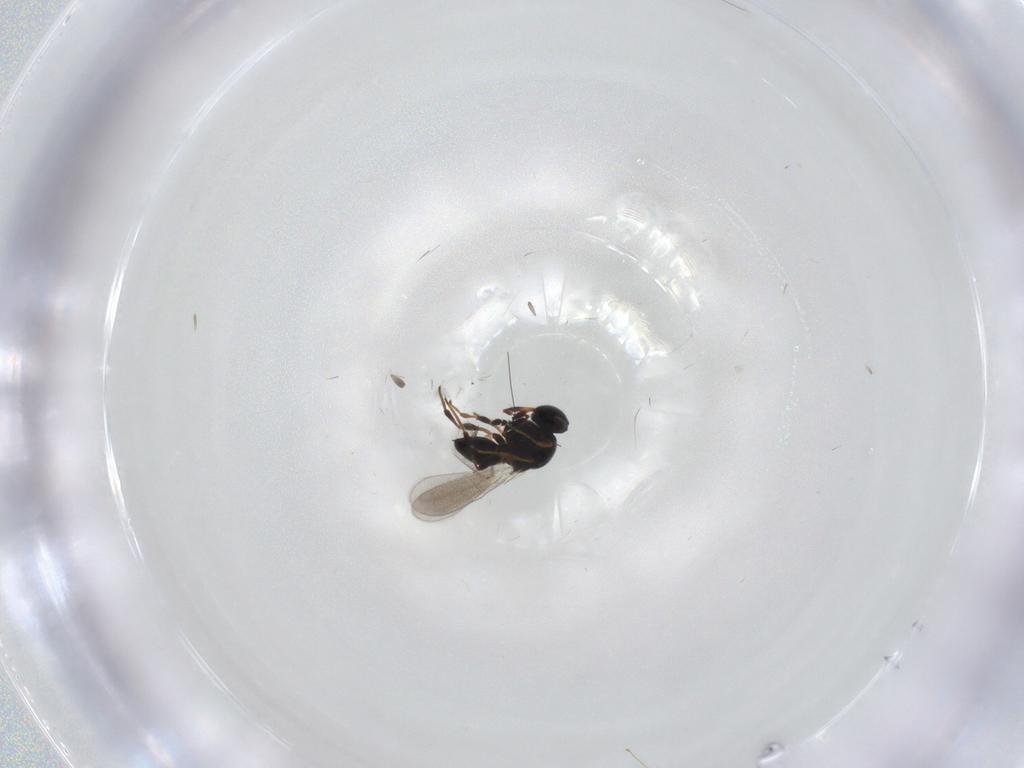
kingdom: Animalia
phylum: Arthropoda
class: Insecta
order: Hymenoptera
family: Platygastridae
